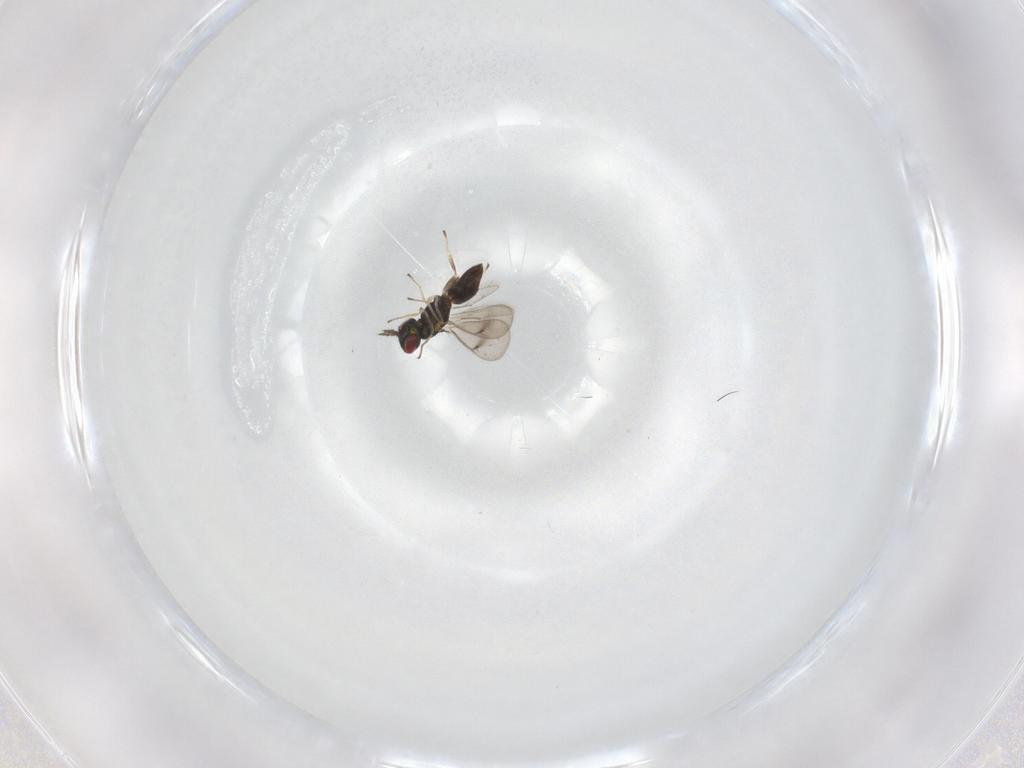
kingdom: Animalia
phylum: Arthropoda
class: Insecta
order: Hymenoptera
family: Eulophidae
